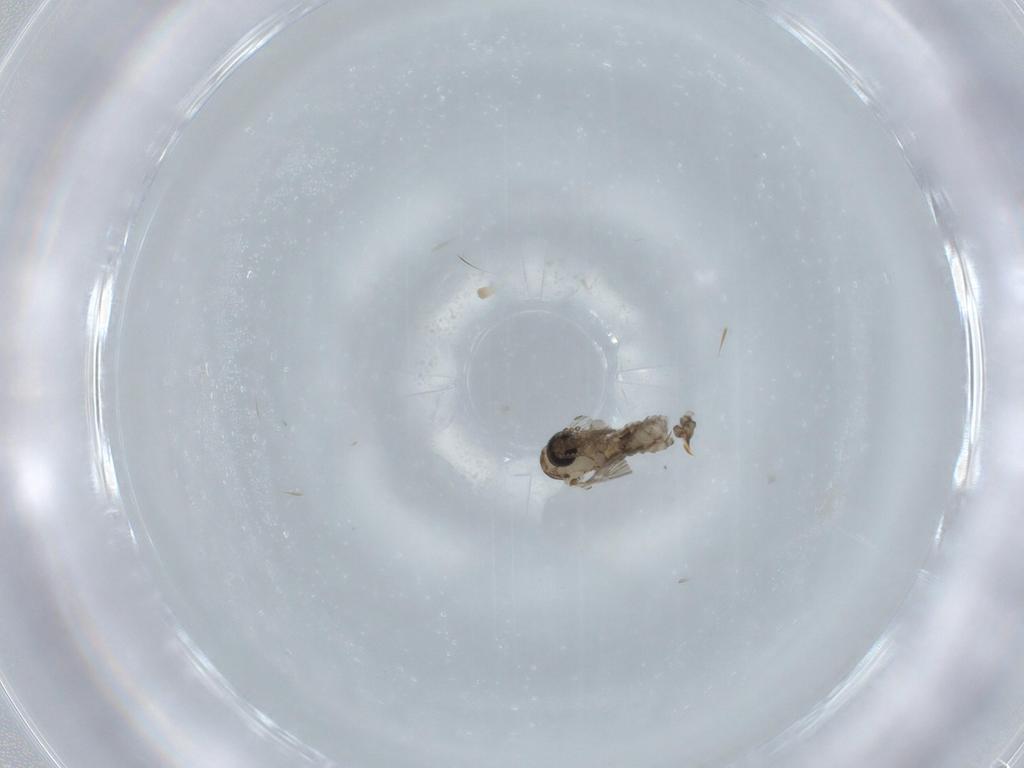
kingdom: Animalia
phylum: Arthropoda
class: Insecta
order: Diptera
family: Psychodidae
